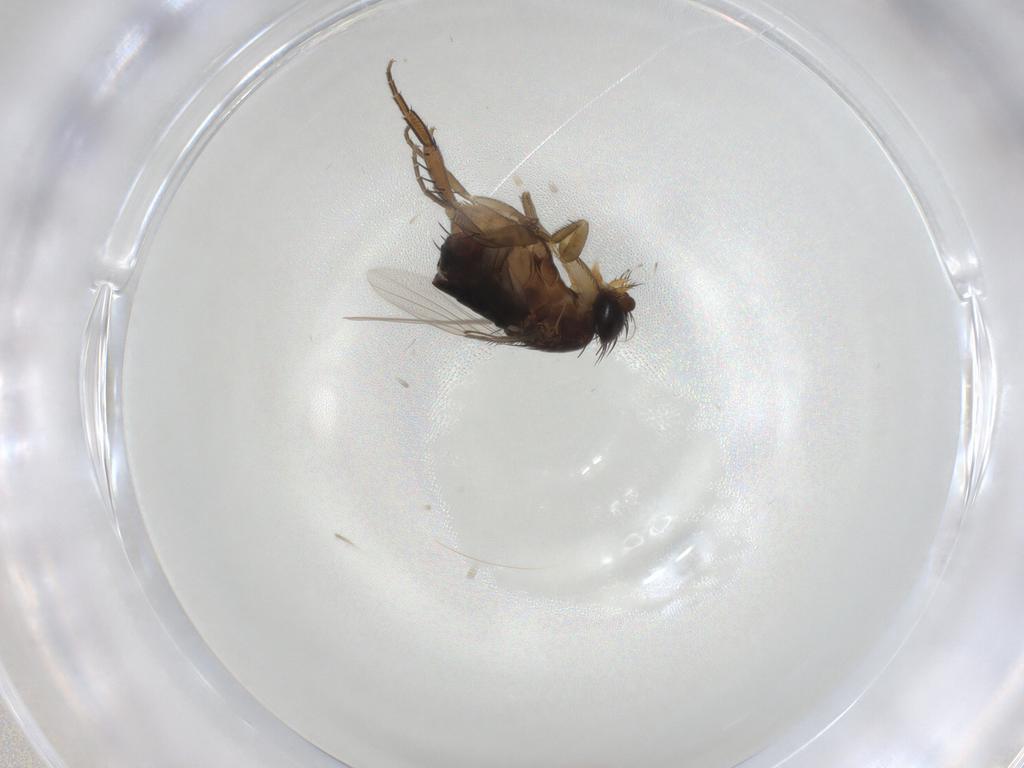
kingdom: Animalia
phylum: Arthropoda
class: Insecta
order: Diptera
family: Phoridae
